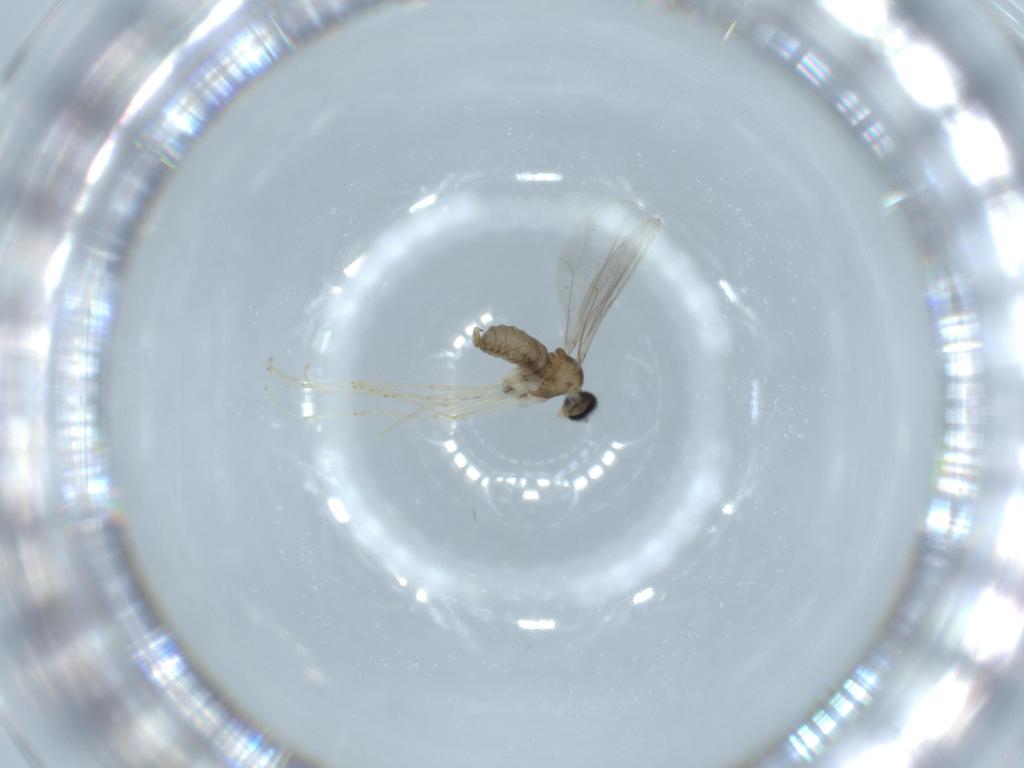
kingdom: Animalia
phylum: Arthropoda
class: Insecta
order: Diptera
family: Cecidomyiidae
